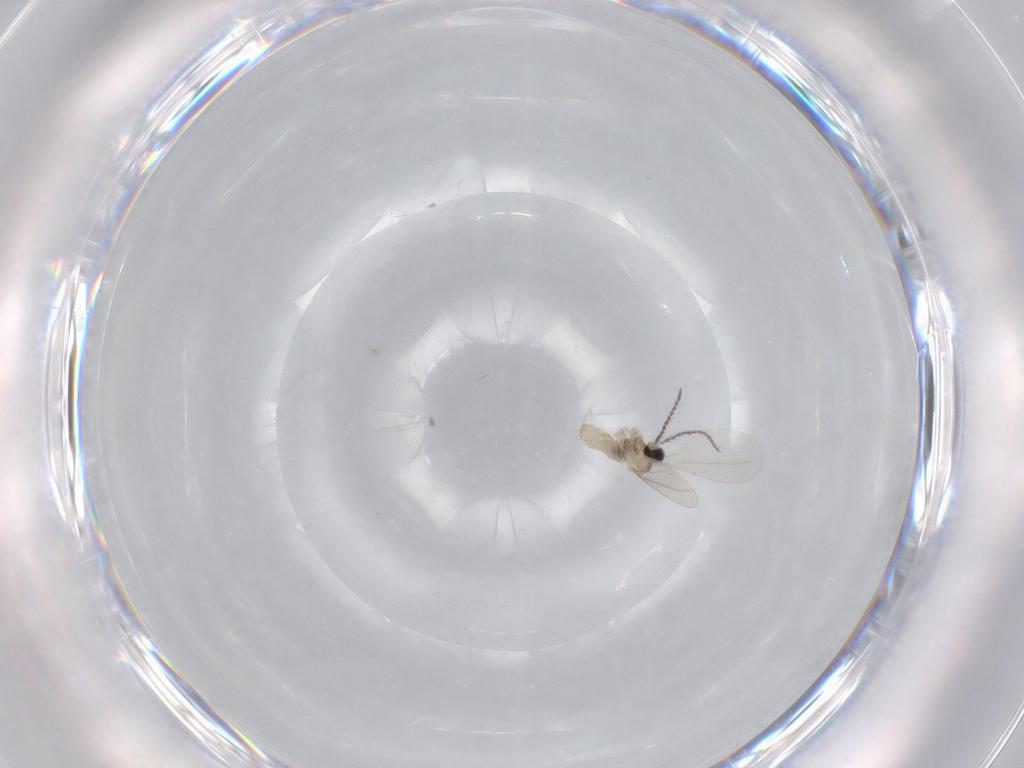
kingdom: Animalia
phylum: Arthropoda
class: Insecta
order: Diptera
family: Cecidomyiidae
